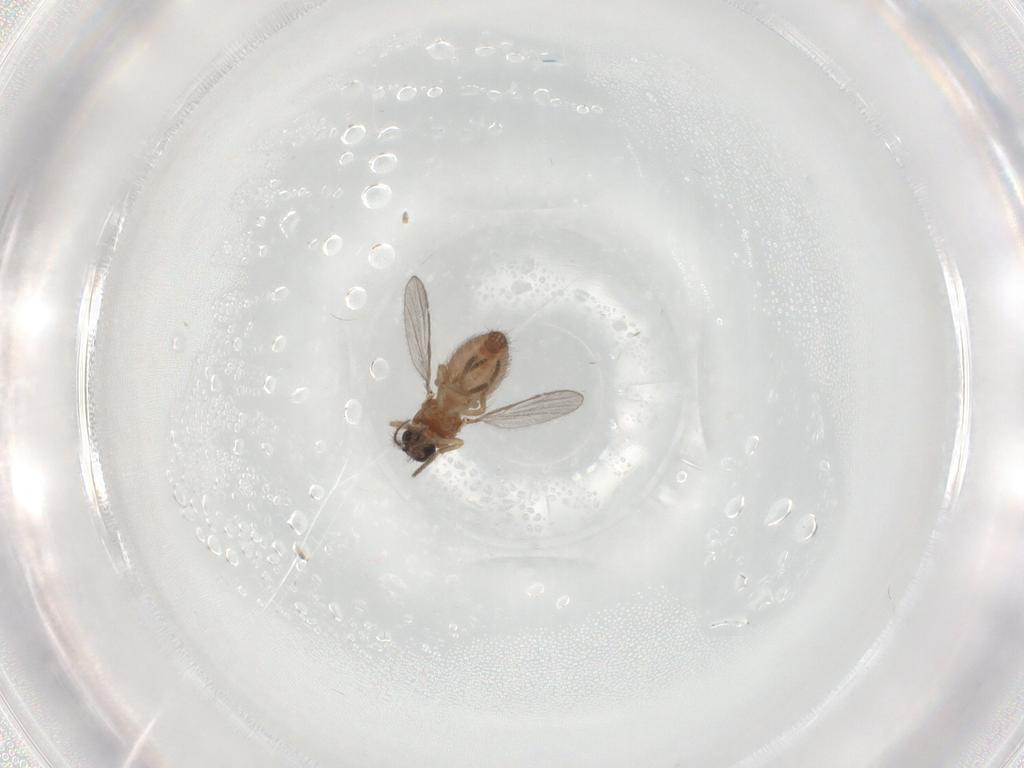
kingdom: Animalia
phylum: Arthropoda
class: Insecta
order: Diptera
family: Ceratopogonidae
